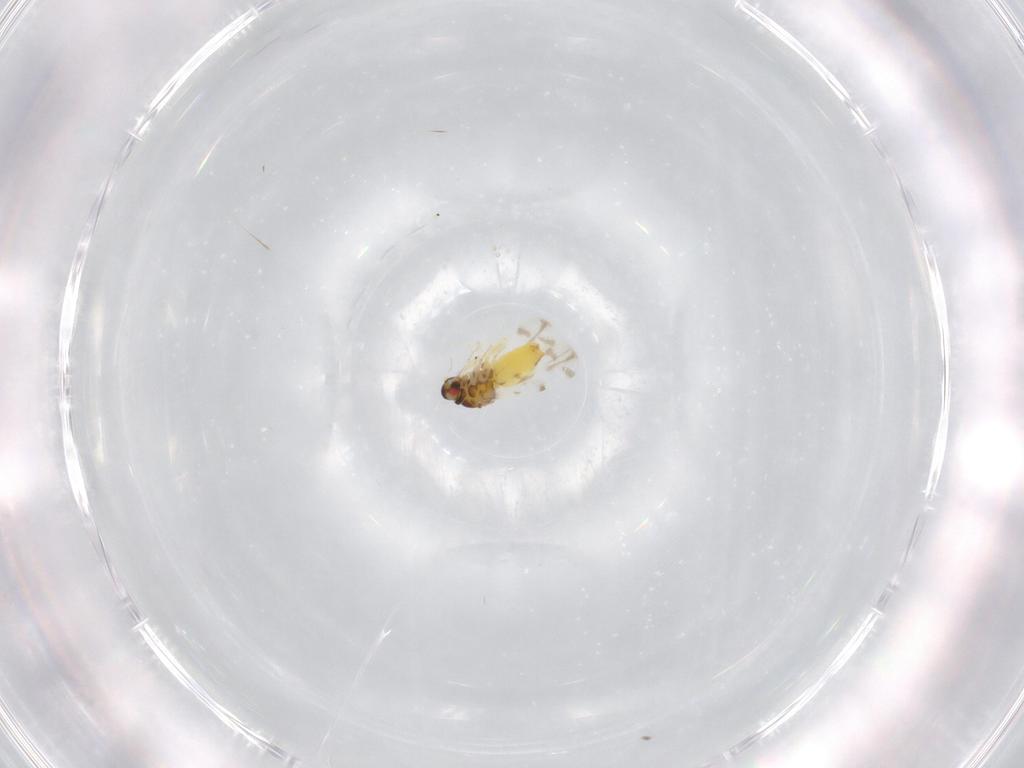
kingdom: Animalia
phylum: Arthropoda
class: Insecta
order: Hemiptera
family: Aleyrodidae
